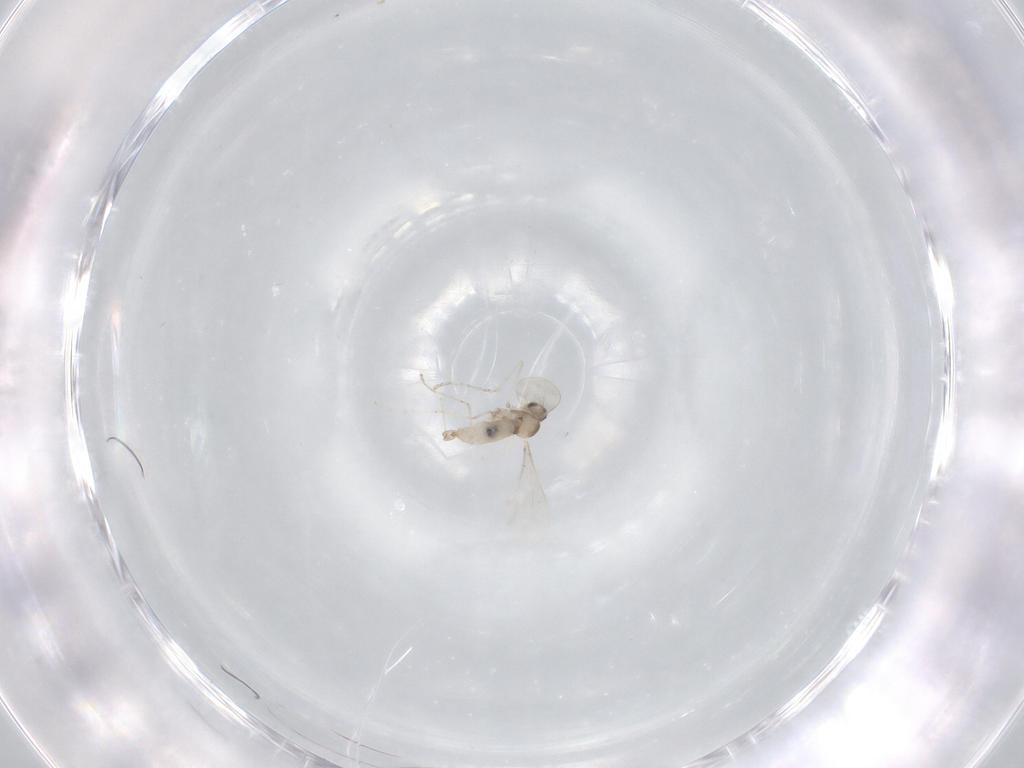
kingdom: Animalia
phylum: Arthropoda
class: Insecta
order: Diptera
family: Cecidomyiidae
